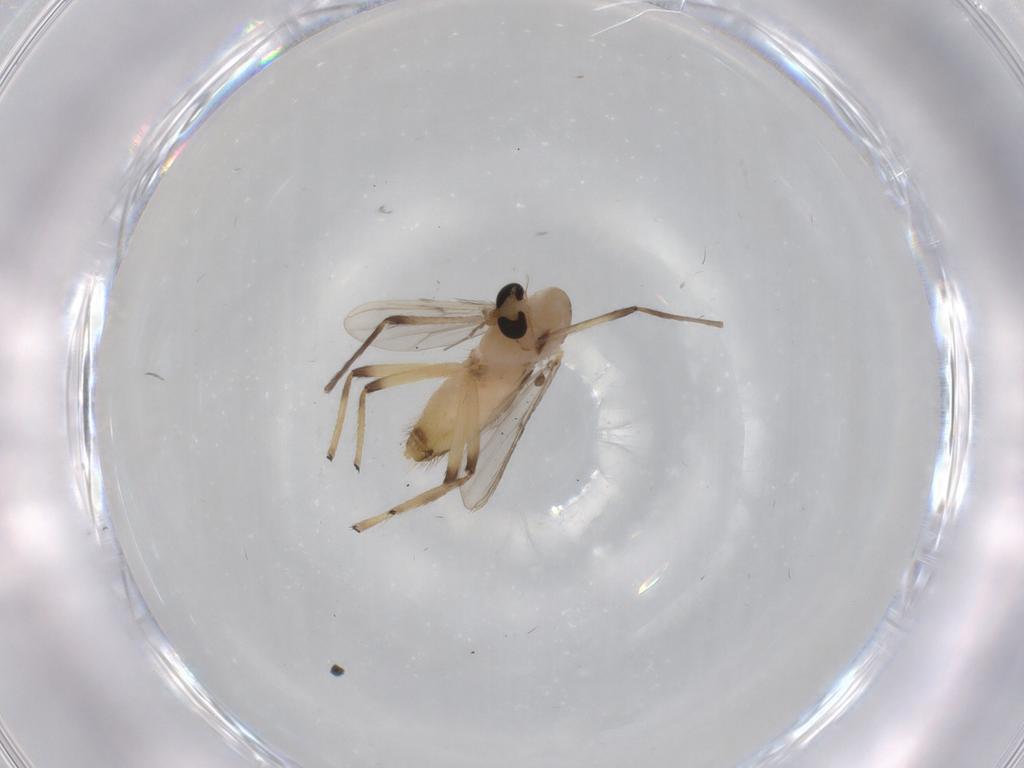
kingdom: Animalia
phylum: Arthropoda
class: Insecta
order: Diptera
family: Chironomidae
